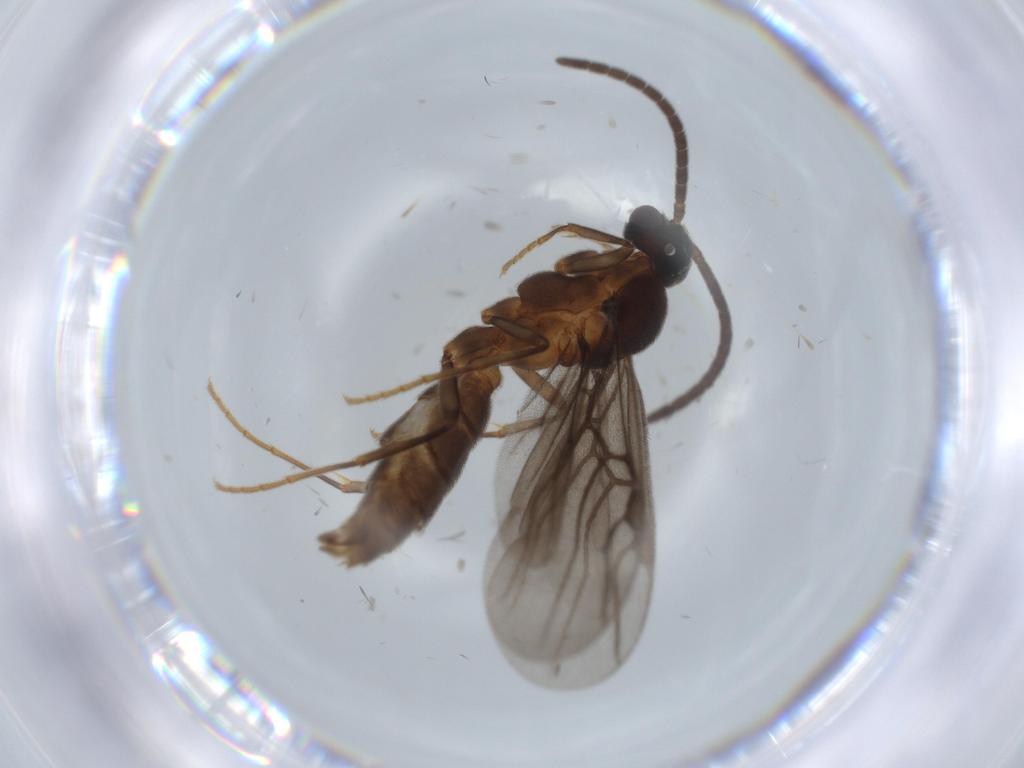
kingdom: Animalia
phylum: Arthropoda
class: Insecta
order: Hymenoptera
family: Formicidae
